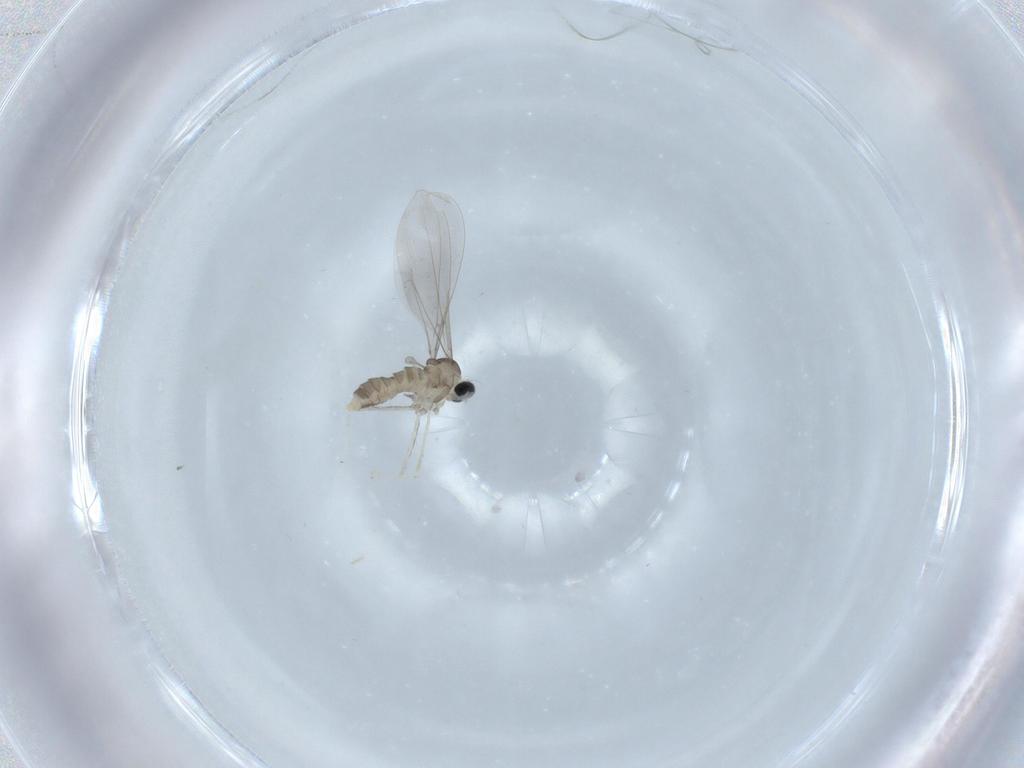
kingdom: Animalia
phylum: Arthropoda
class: Insecta
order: Diptera
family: Cecidomyiidae
